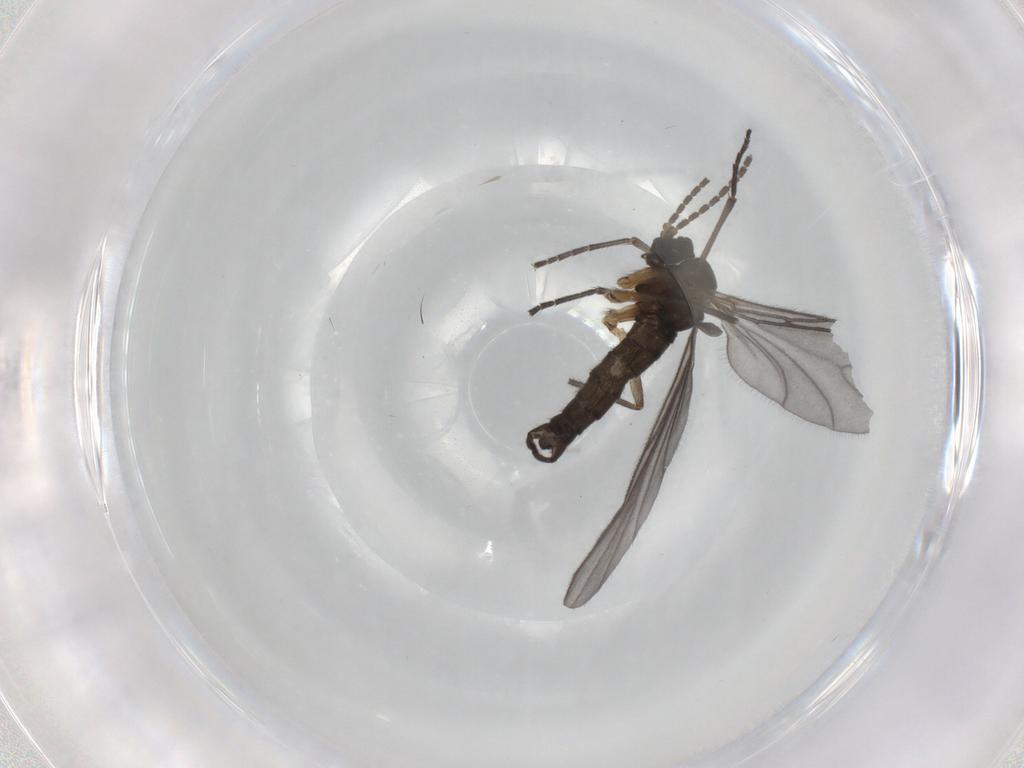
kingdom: Animalia
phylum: Arthropoda
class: Insecta
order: Diptera
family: Sciaridae
